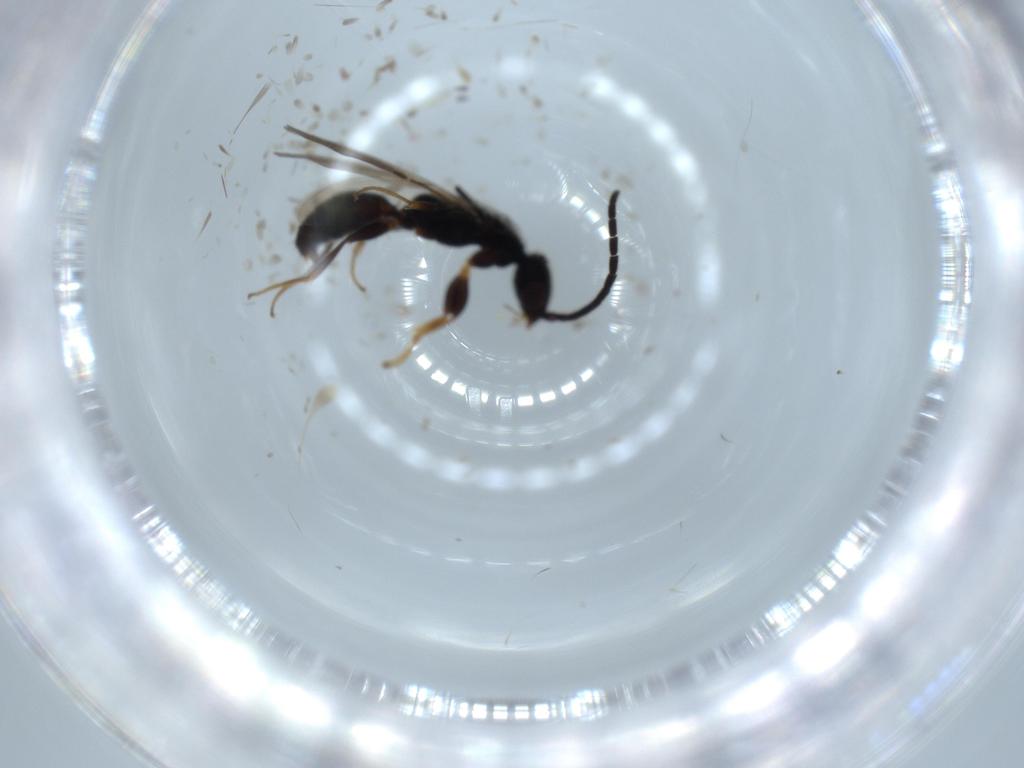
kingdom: Animalia
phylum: Arthropoda
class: Insecta
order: Hymenoptera
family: Bethylidae
